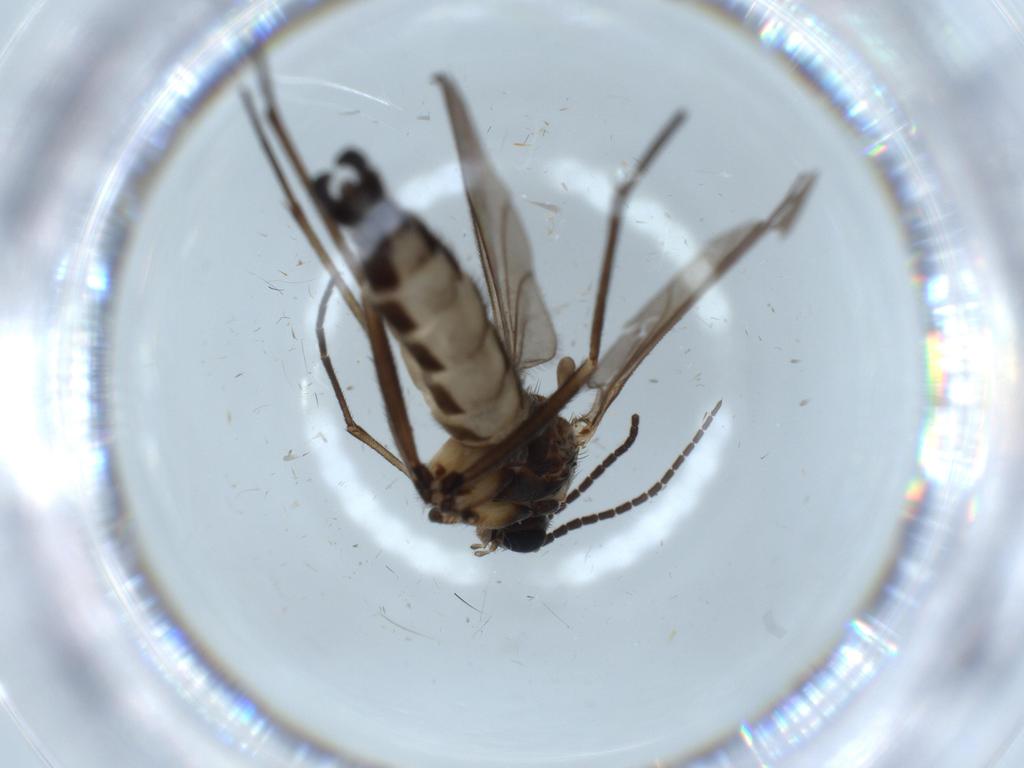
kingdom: Animalia
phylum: Arthropoda
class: Insecta
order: Diptera
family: Sciaridae
